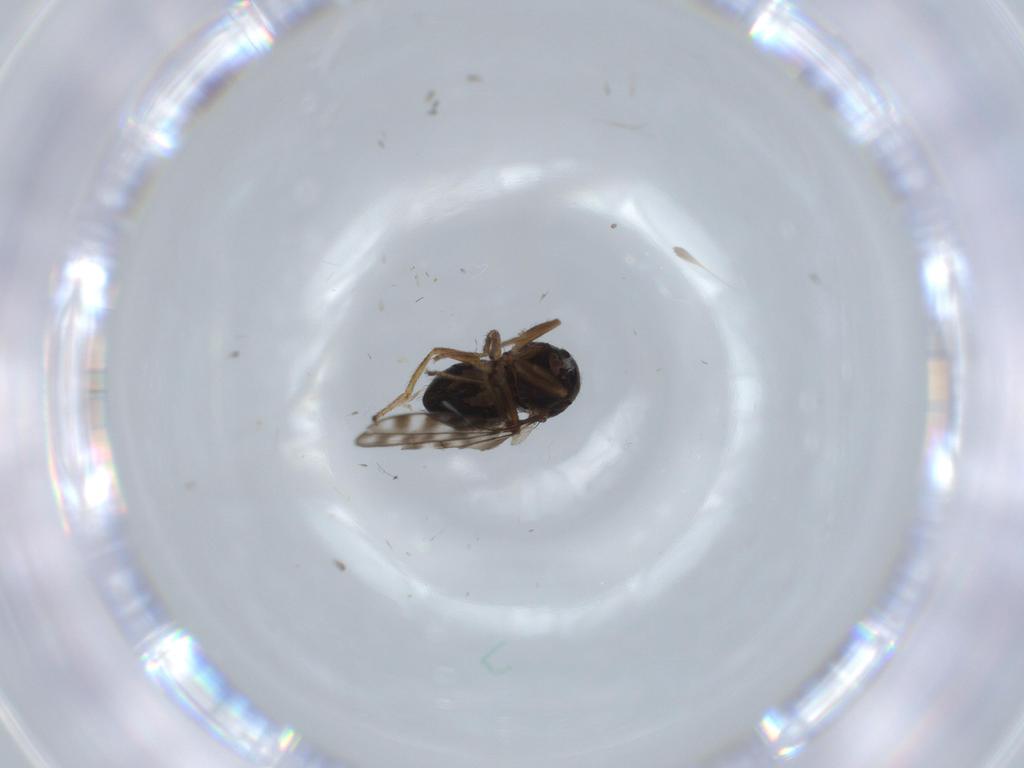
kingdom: Animalia
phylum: Arthropoda
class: Insecta
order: Diptera
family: Ephydridae
